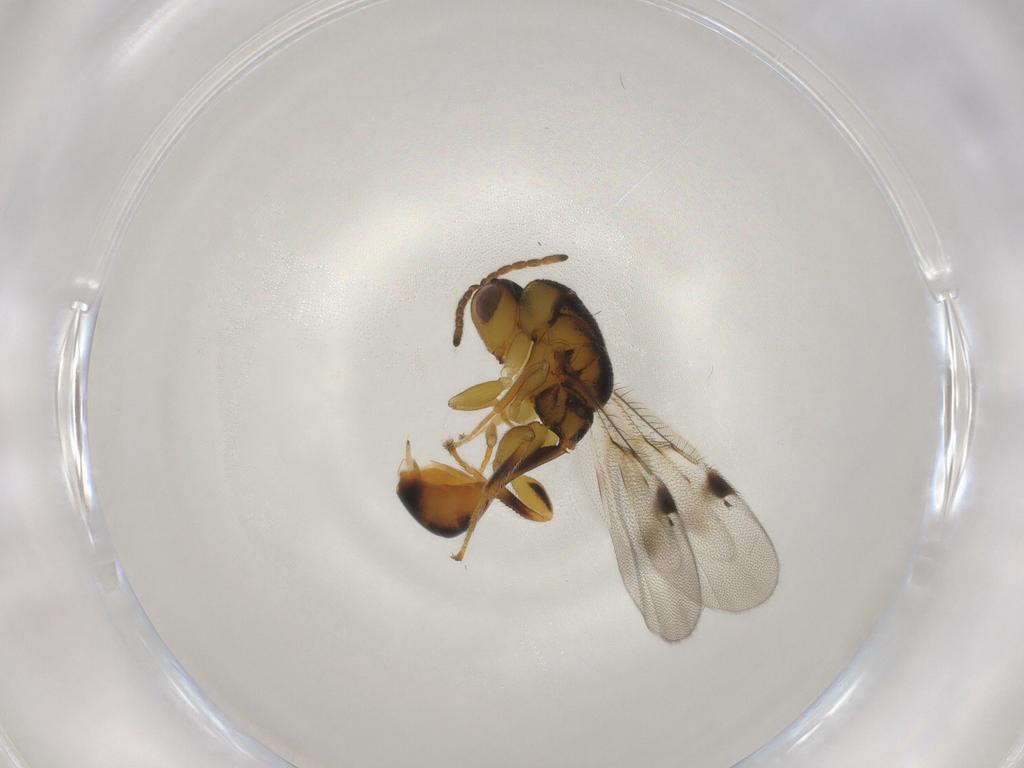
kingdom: Animalia
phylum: Arthropoda
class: Insecta
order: Hymenoptera
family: Eurytomidae
